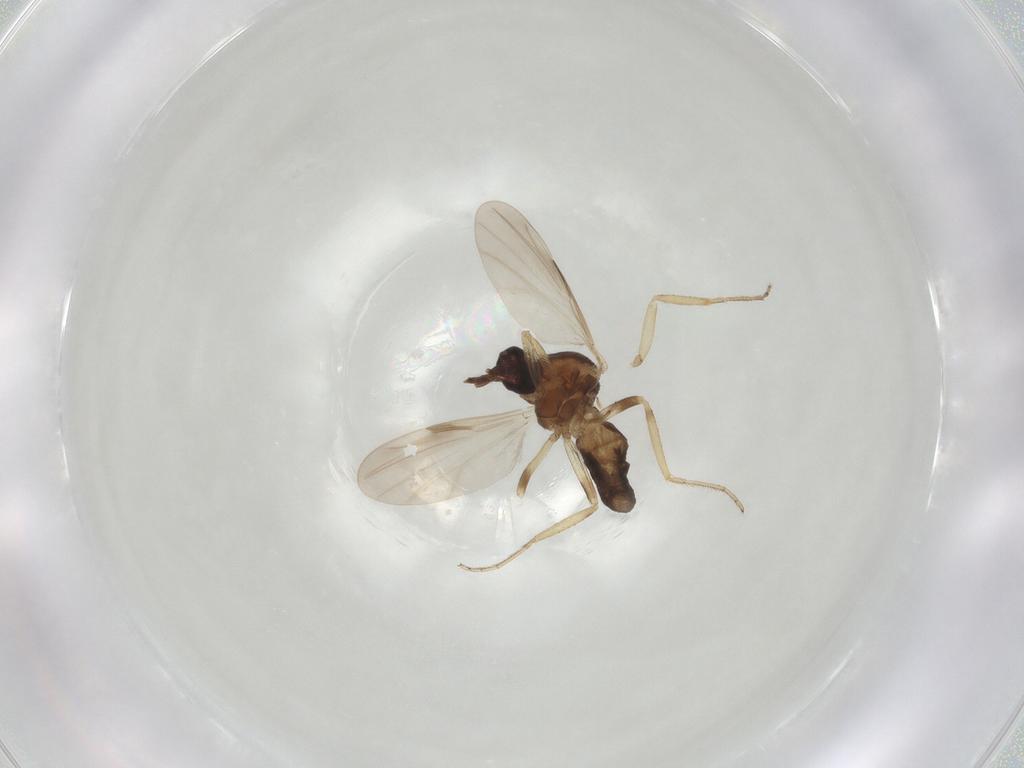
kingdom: Animalia
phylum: Arthropoda
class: Insecta
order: Diptera
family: Ceratopogonidae
